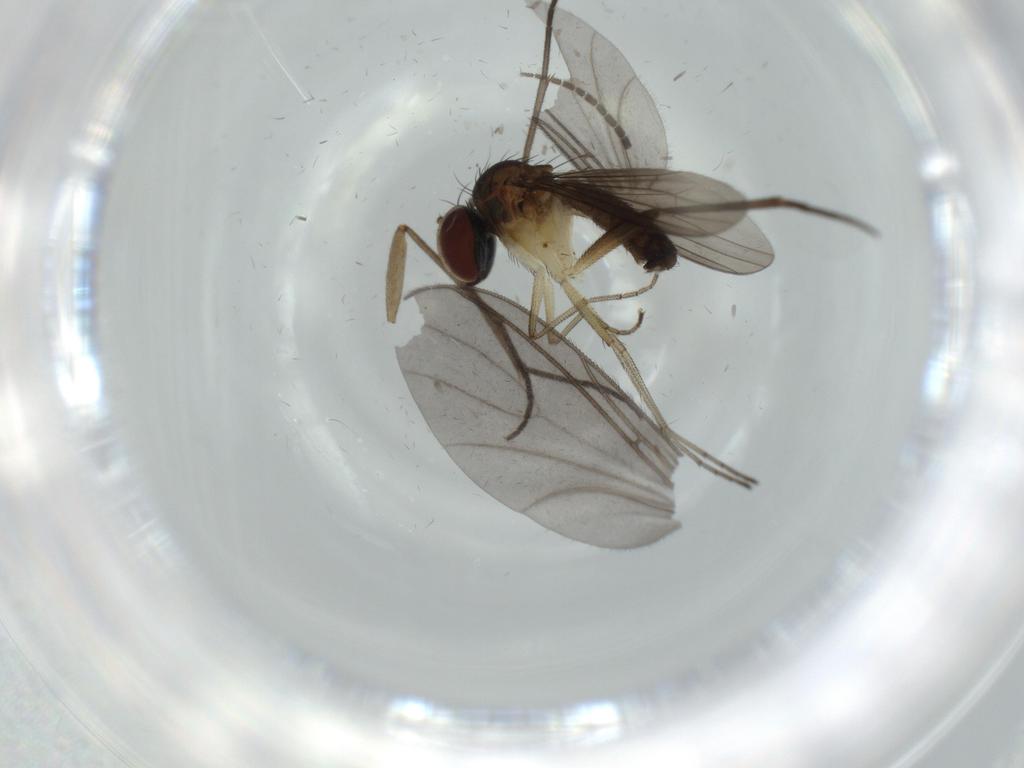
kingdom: Animalia
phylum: Arthropoda
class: Insecta
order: Diptera
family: Sciaridae
